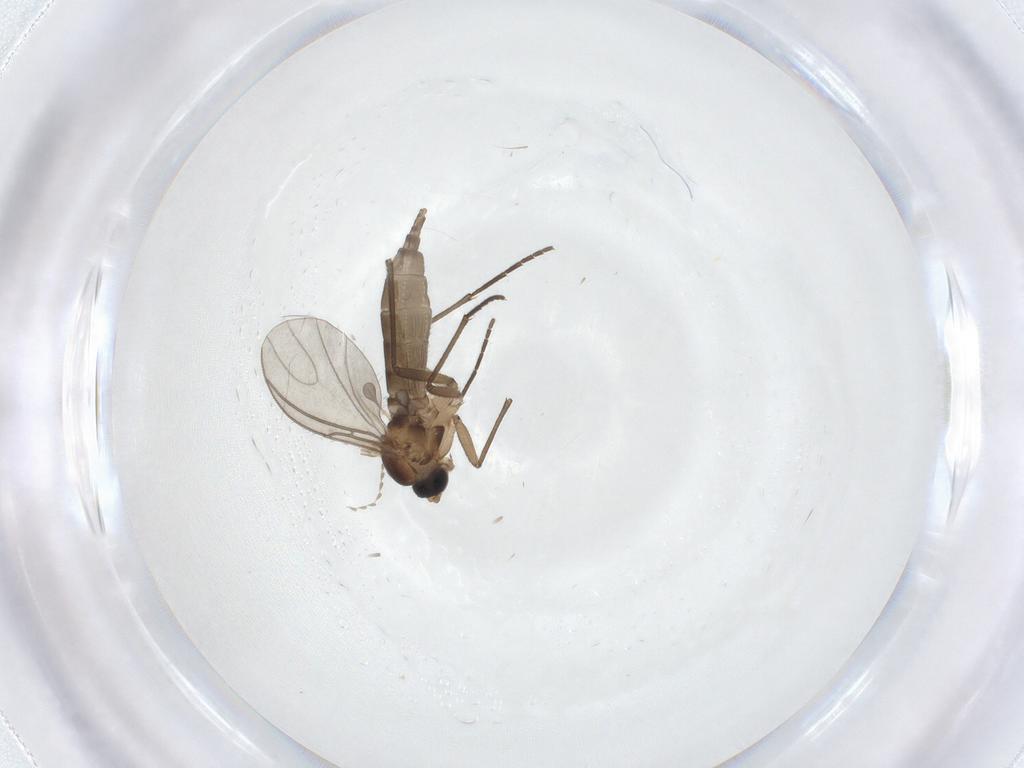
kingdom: Animalia
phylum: Arthropoda
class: Insecta
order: Diptera
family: Sciaridae
